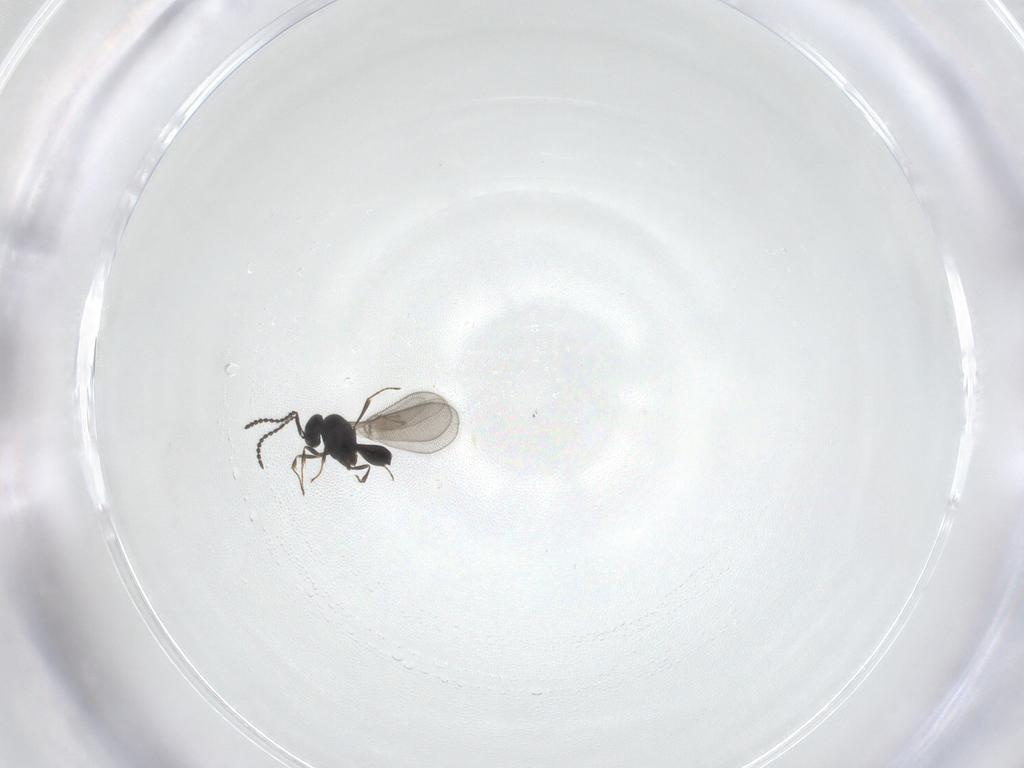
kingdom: Animalia
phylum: Arthropoda
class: Insecta
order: Hymenoptera
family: Scelionidae
